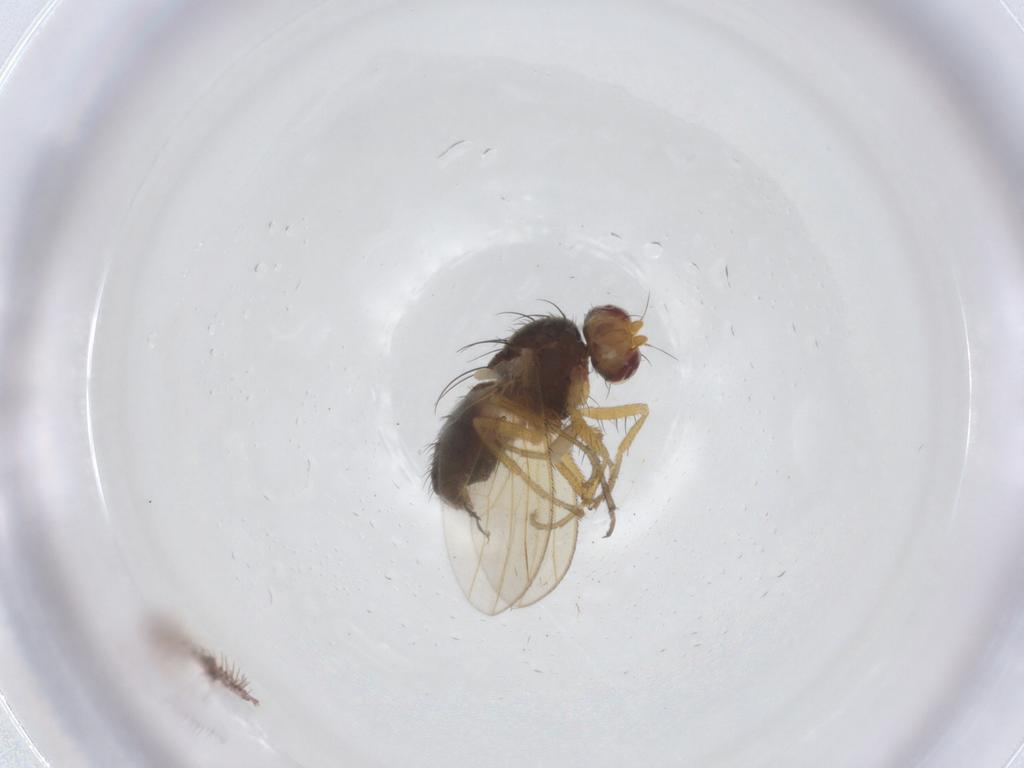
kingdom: Animalia
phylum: Arthropoda
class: Insecta
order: Diptera
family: Heleomyzidae
